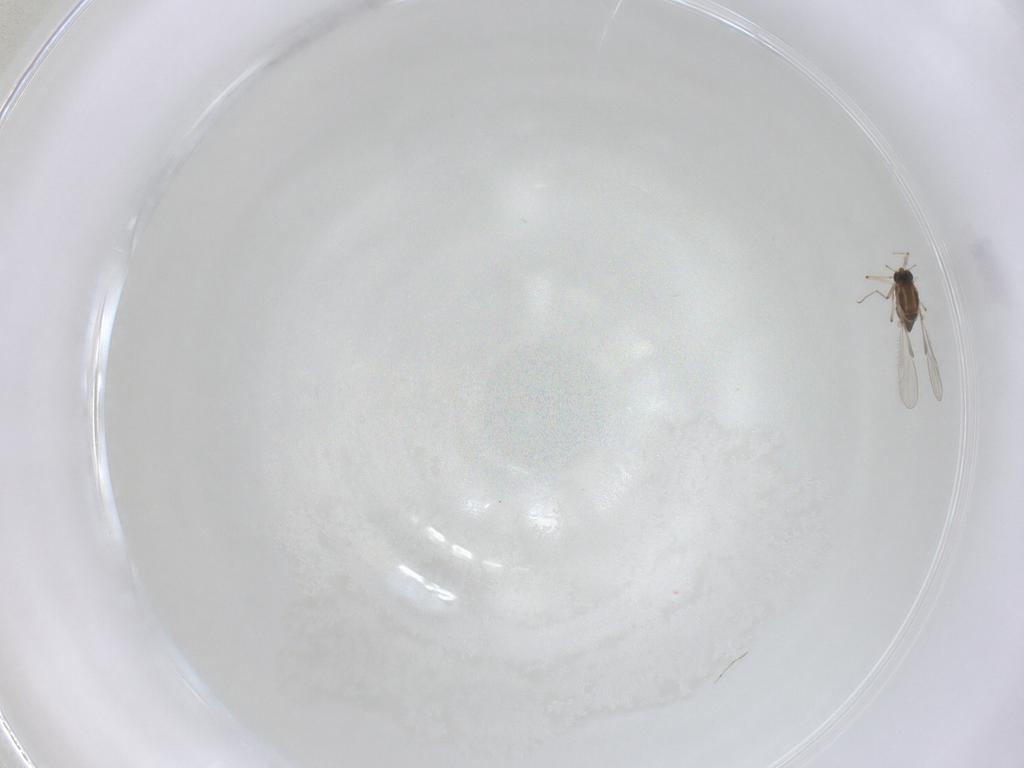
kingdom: Animalia
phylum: Arthropoda
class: Insecta
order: Diptera
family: Chironomidae
